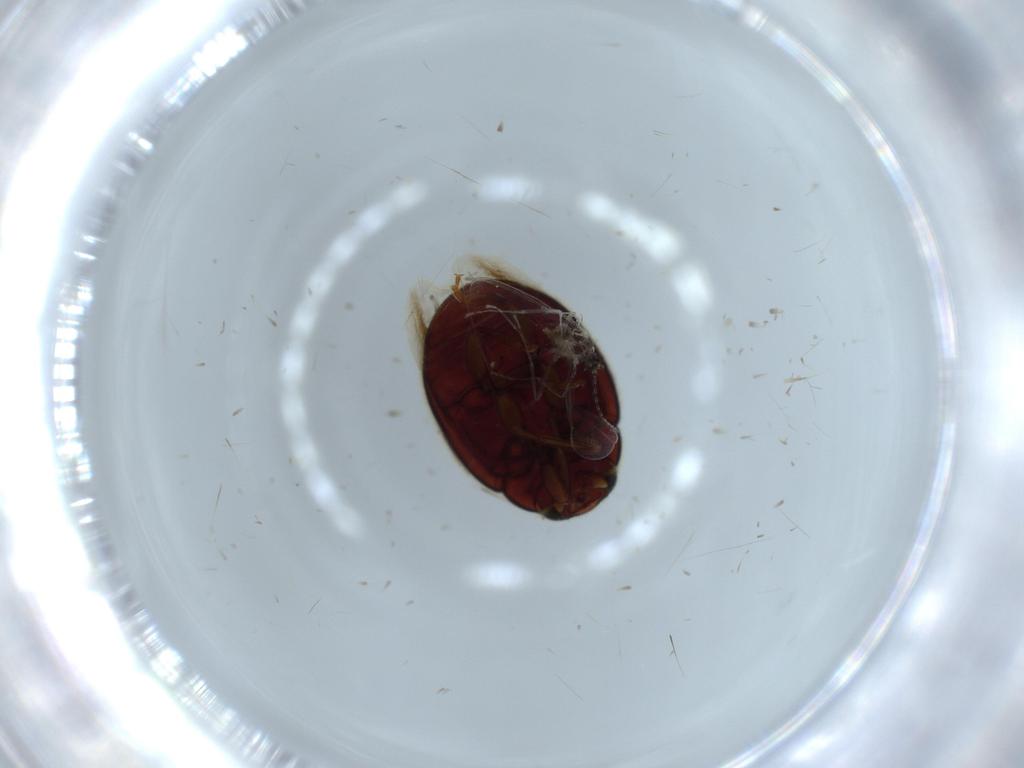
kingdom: Animalia
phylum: Arthropoda
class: Insecta
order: Coleoptera
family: Coccinellidae
